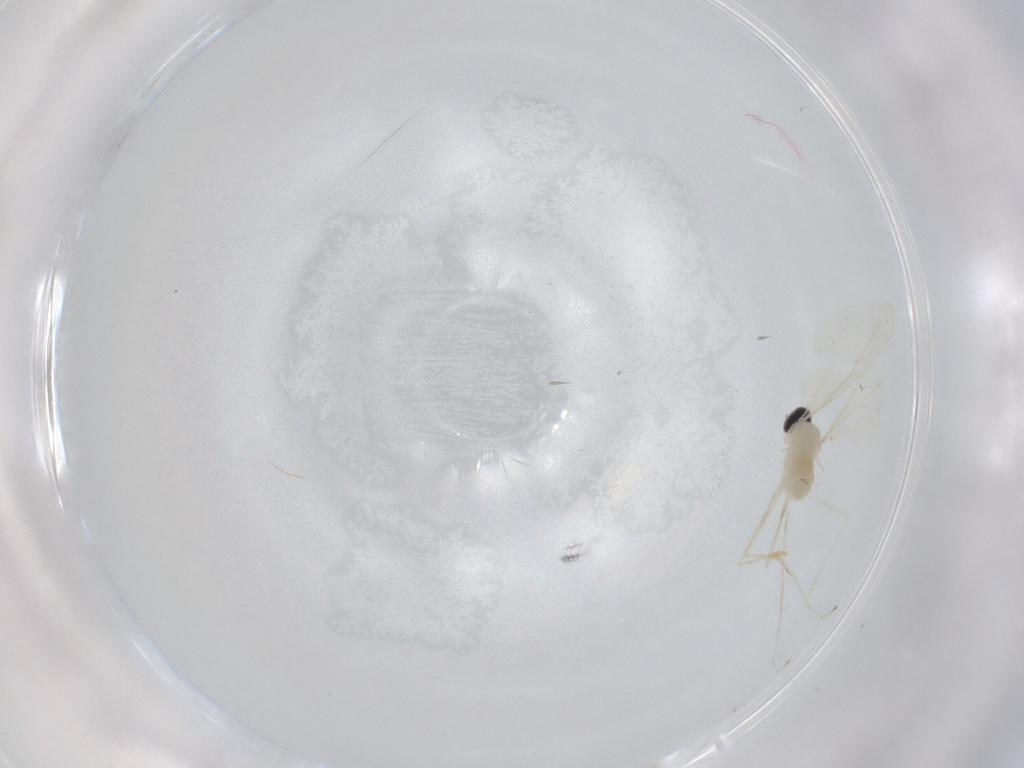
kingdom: Animalia
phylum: Arthropoda
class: Insecta
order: Diptera
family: Cecidomyiidae
